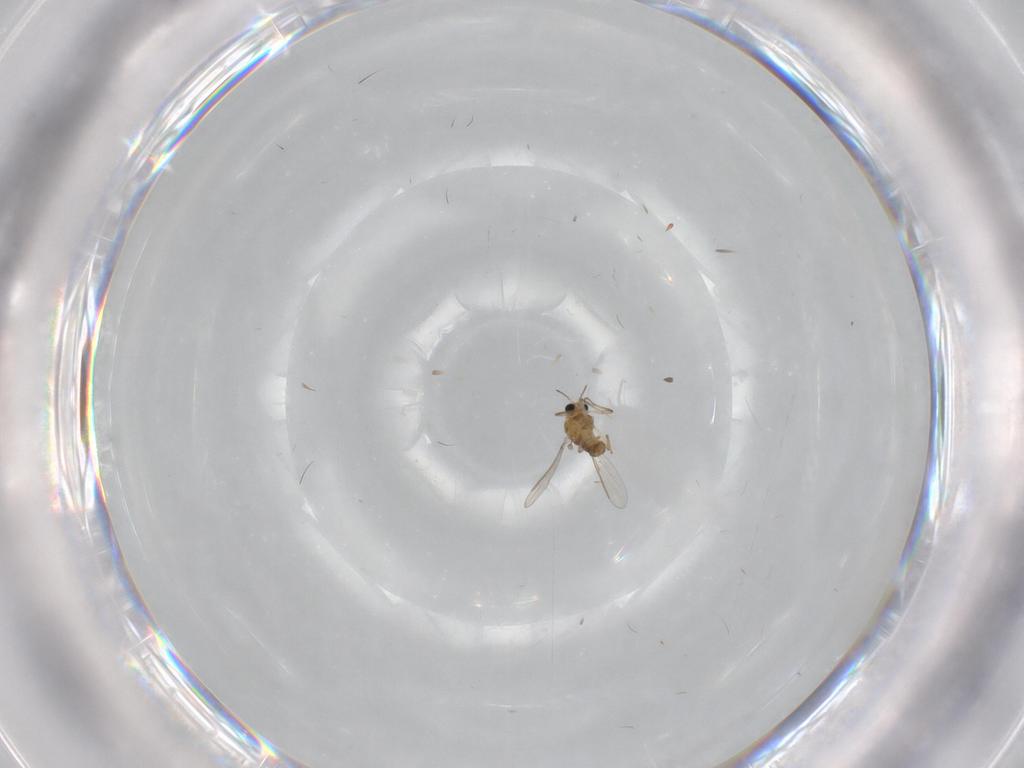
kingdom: Animalia
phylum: Arthropoda
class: Insecta
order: Diptera
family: Chironomidae
